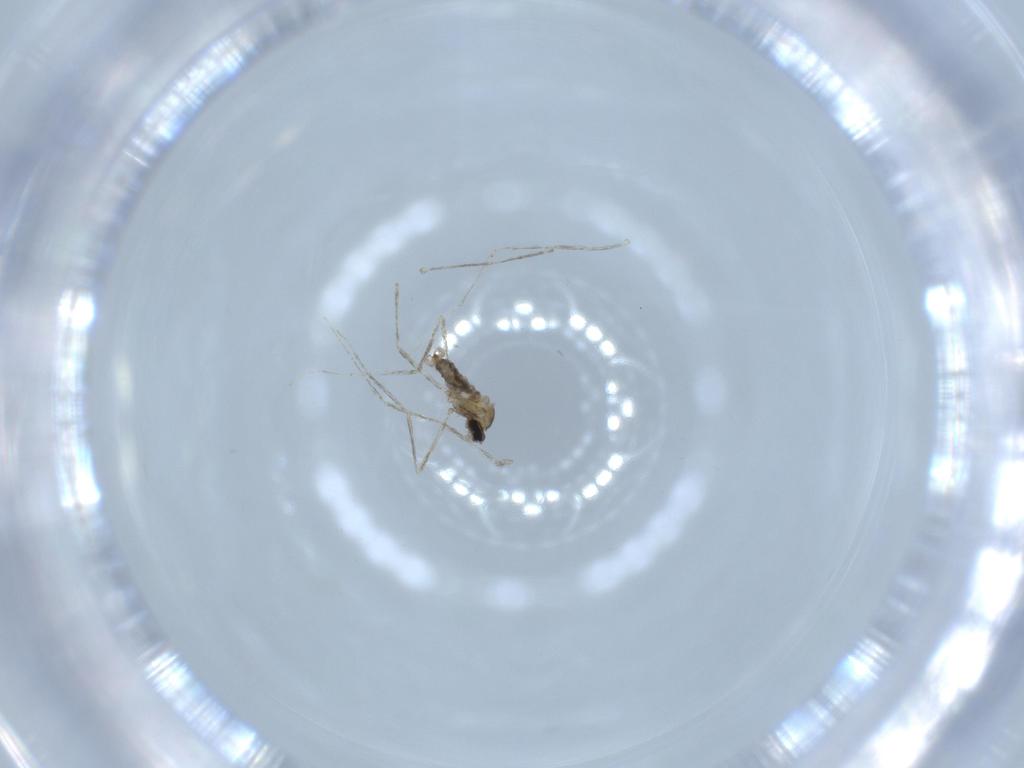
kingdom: Animalia
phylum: Arthropoda
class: Insecta
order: Diptera
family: Cecidomyiidae
